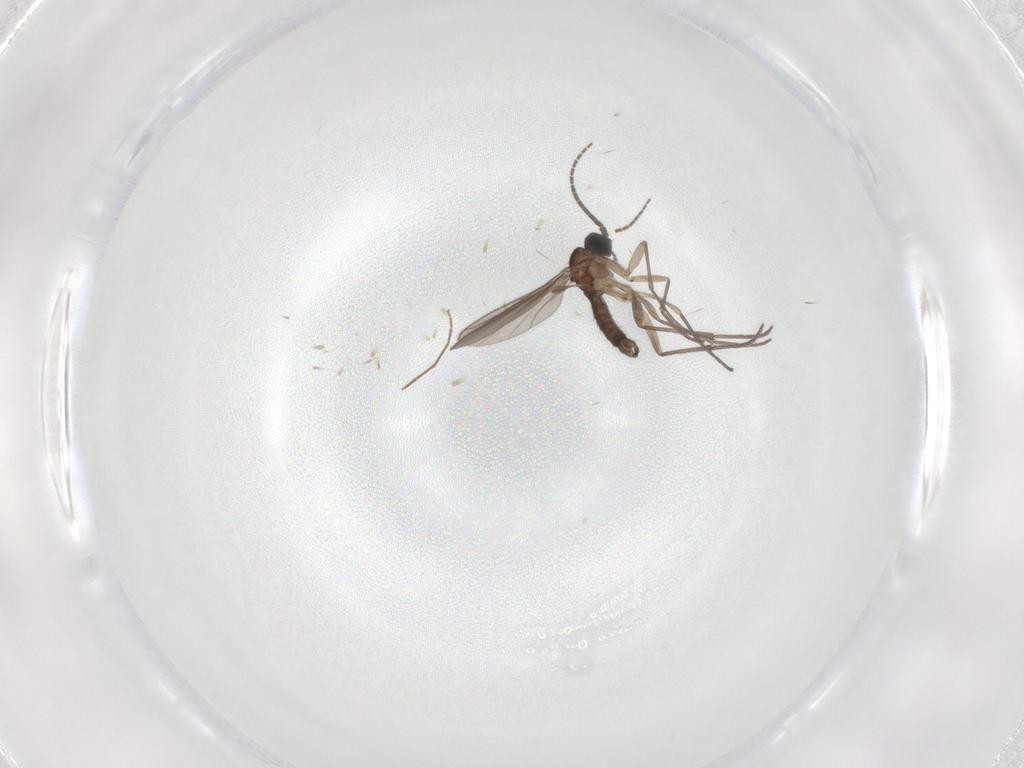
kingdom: Animalia
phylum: Arthropoda
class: Insecta
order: Diptera
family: Sciaridae
